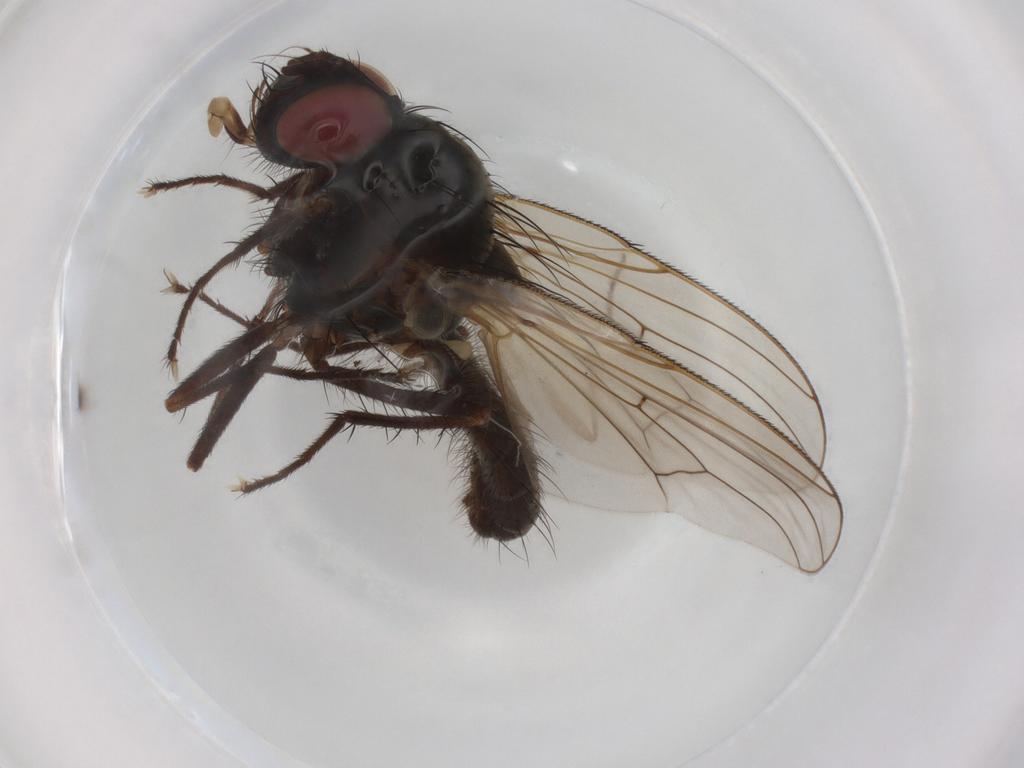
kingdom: Animalia
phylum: Arthropoda
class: Insecta
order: Diptera
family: Anthomyiidae
